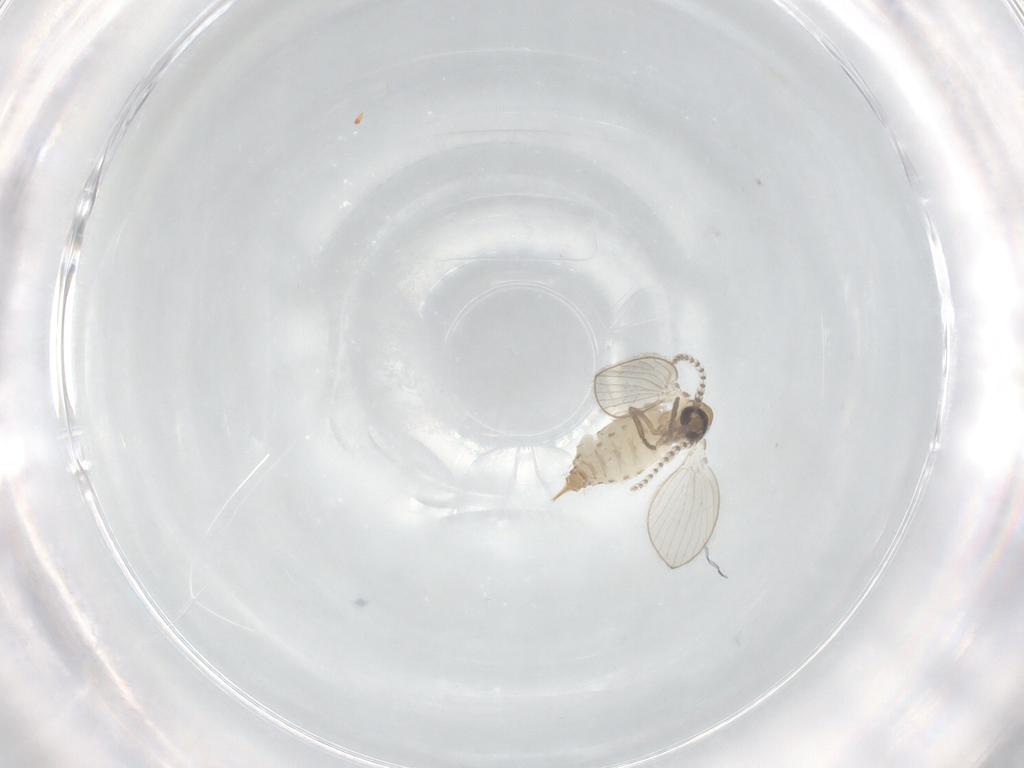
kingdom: Animalia
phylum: Arthropoda
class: Insecta
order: Diptera
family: Psychodidae
